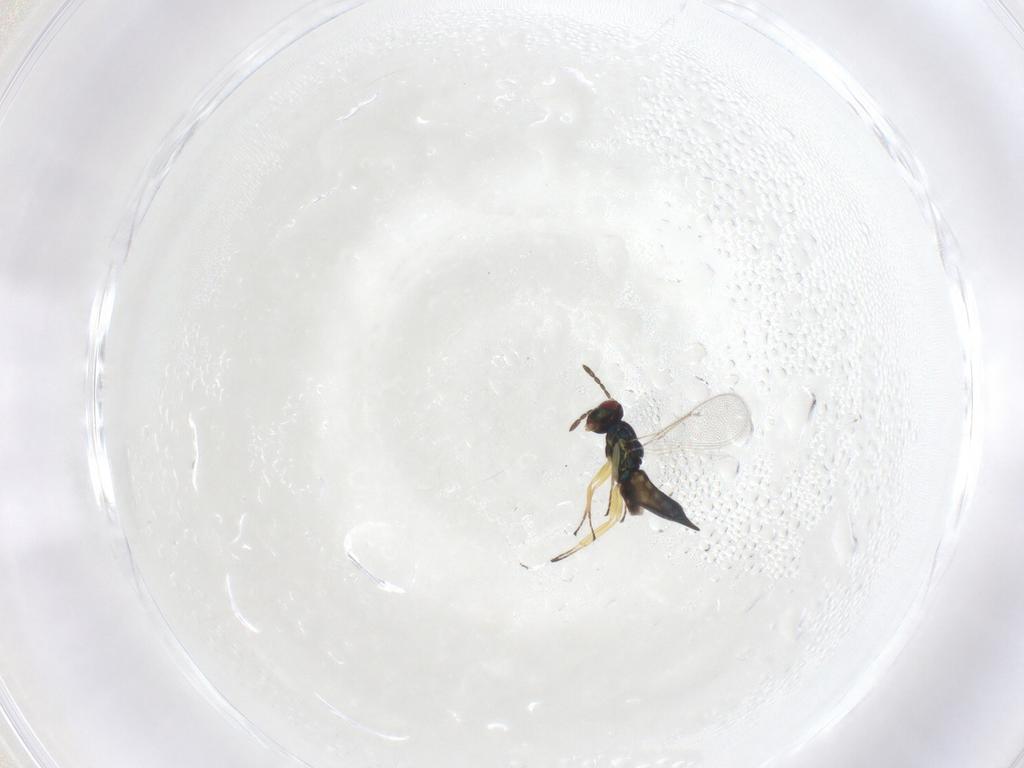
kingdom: Animalia
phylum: Arthropoda
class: Insecta
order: Hymenoptera
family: Eulophidae
